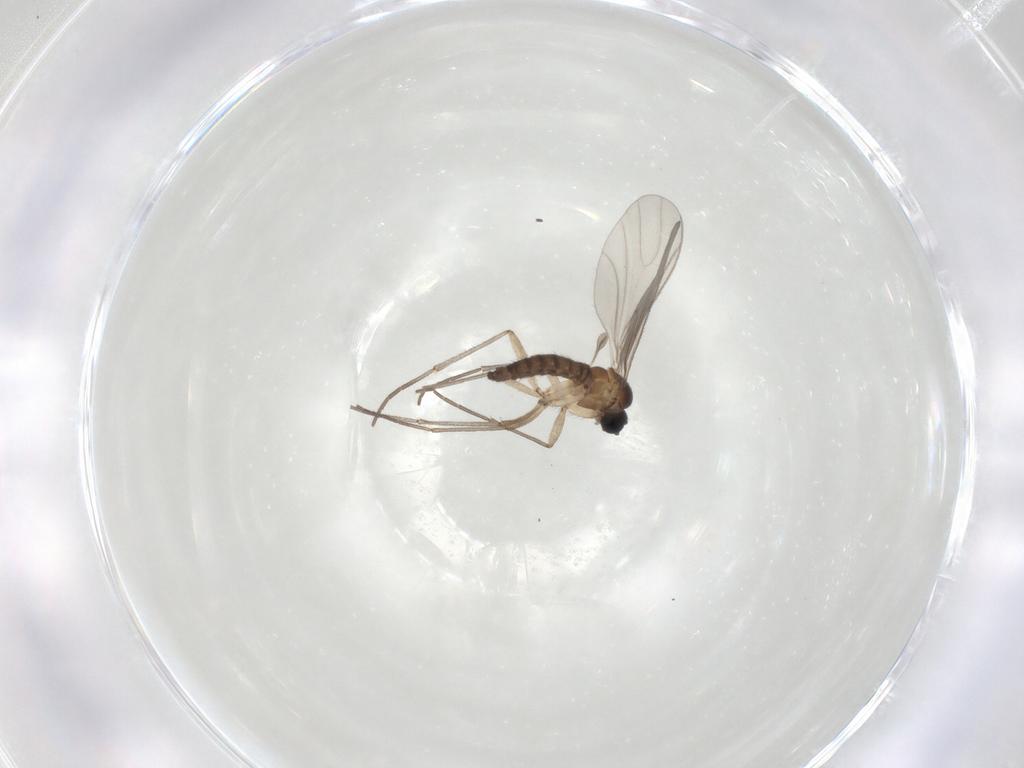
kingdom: Animalia
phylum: Arthropoda
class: Insecta
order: Diptera
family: Sciaridae
